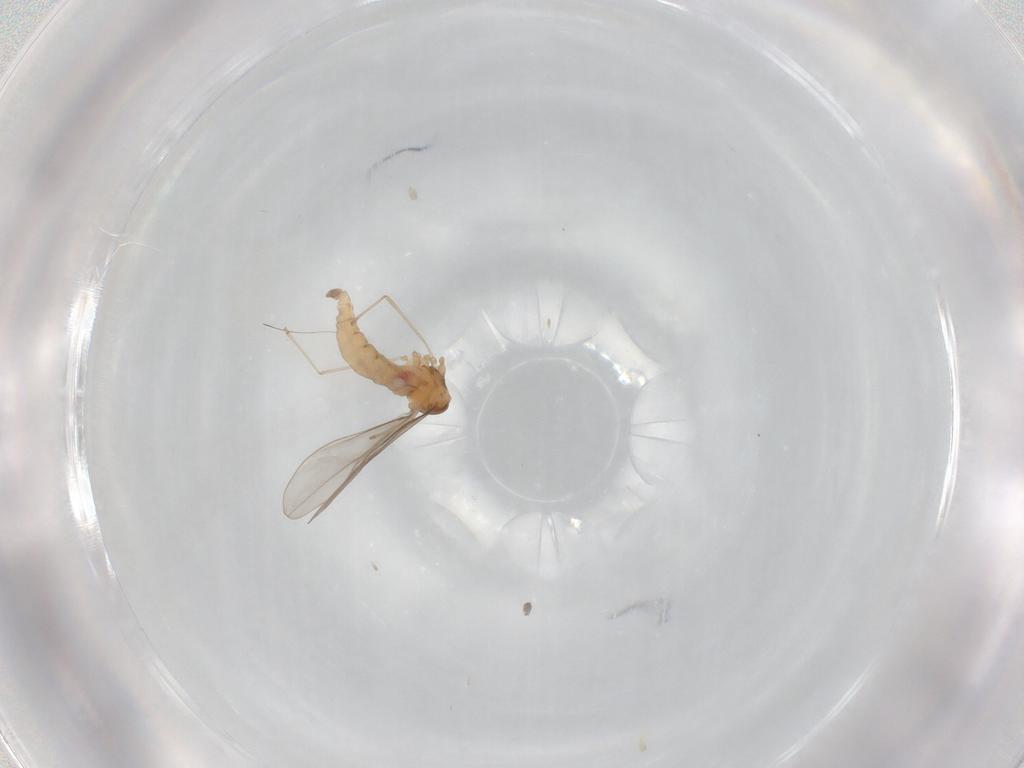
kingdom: Animalia
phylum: Arthropoda
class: Insecta
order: Diptera
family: Cecidomyiidae
